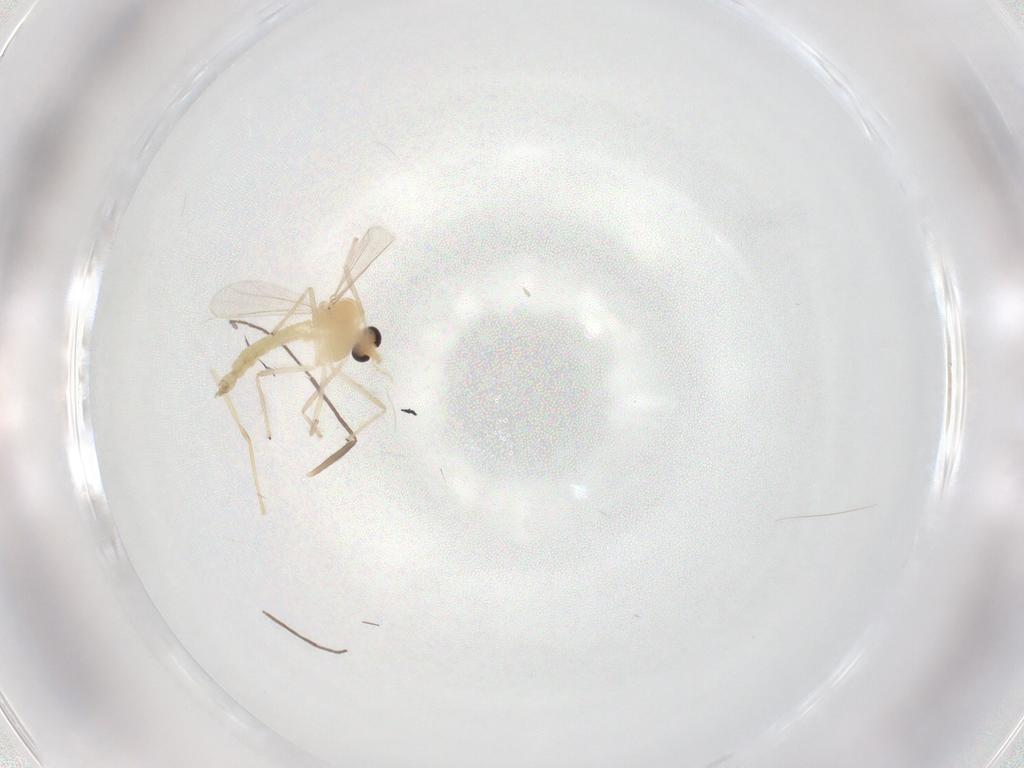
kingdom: Animalia
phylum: Arthropoda
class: Insecta
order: Diptera
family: Chironomidae
